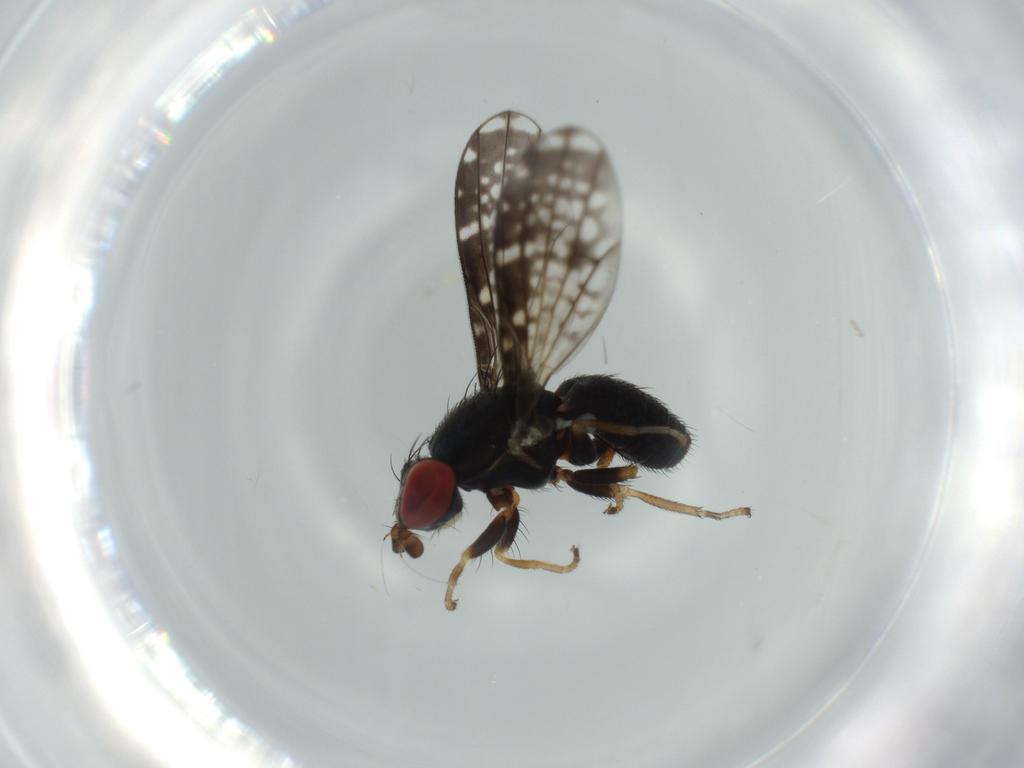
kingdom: Animalia
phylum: Arthropoda
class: Insecta
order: Diptera
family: Chamaemyiidae
